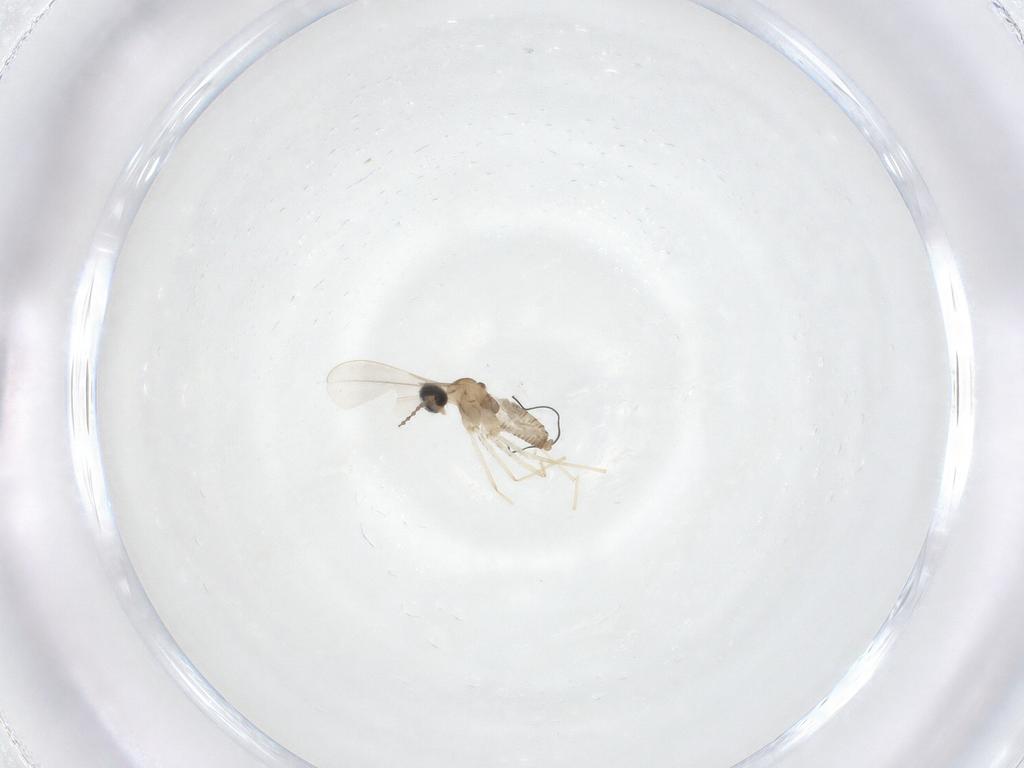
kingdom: Animalia
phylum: Arthropoda
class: Insecta
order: Diptera
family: Cecidomyiidae
